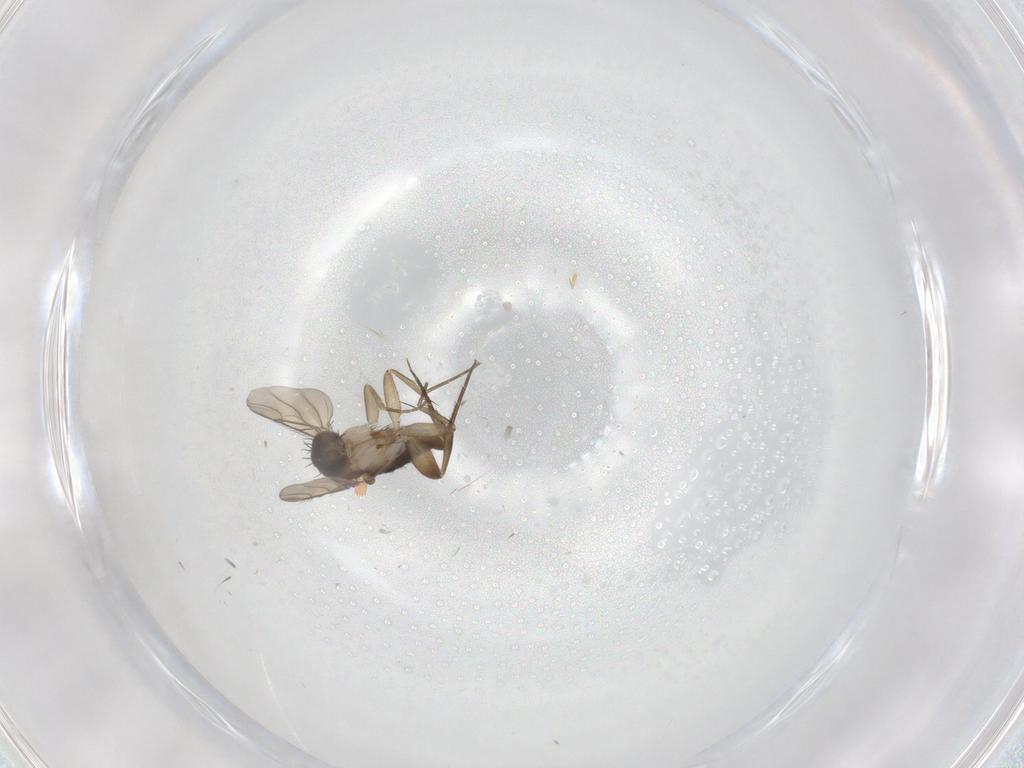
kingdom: Animalia
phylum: Arthropoda
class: Insecta
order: Diptera
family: Phoridae
